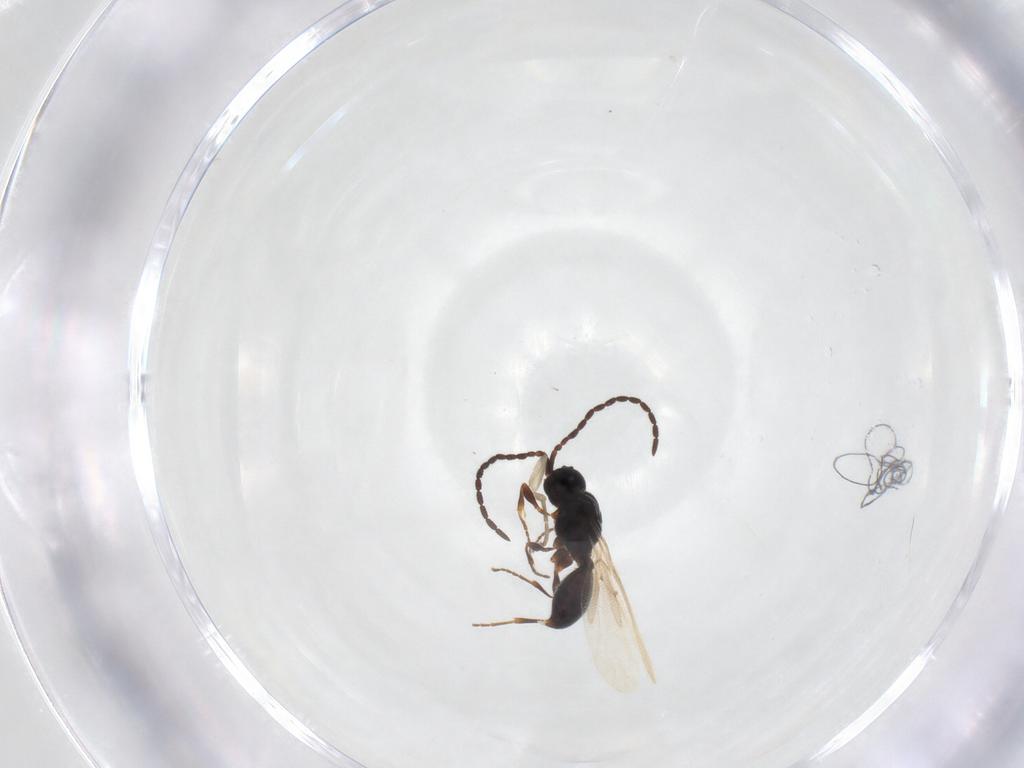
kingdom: Animalia
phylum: Arthropoda
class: Insecta
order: Hymenoptera
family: Diapriidae
